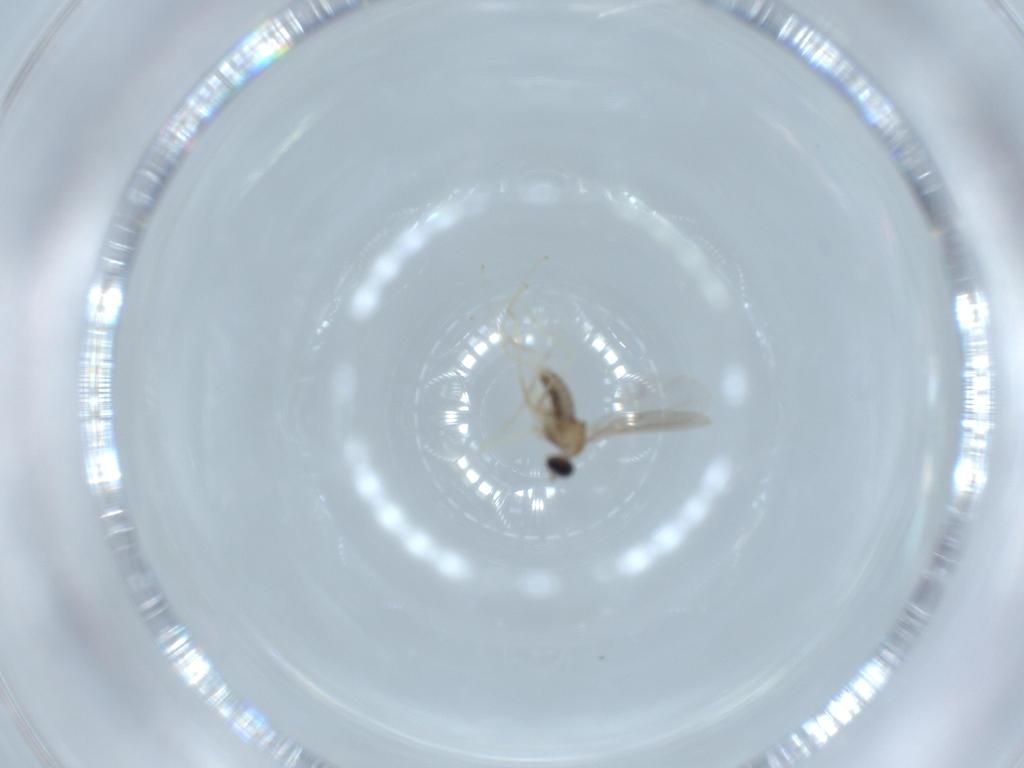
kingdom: Animalia
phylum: Arthropoda
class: Insecta
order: Diptera
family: Cecidomyiidae
